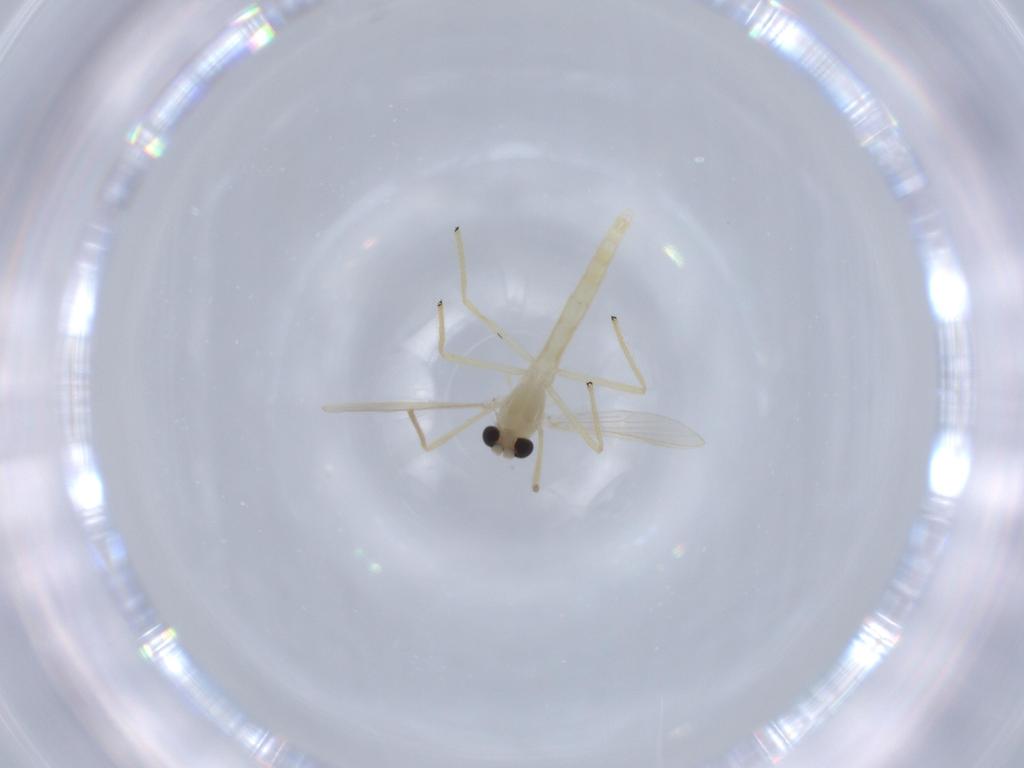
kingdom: Animalia
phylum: Arthropoda
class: Insecta
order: Diptera
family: Chironomidae
